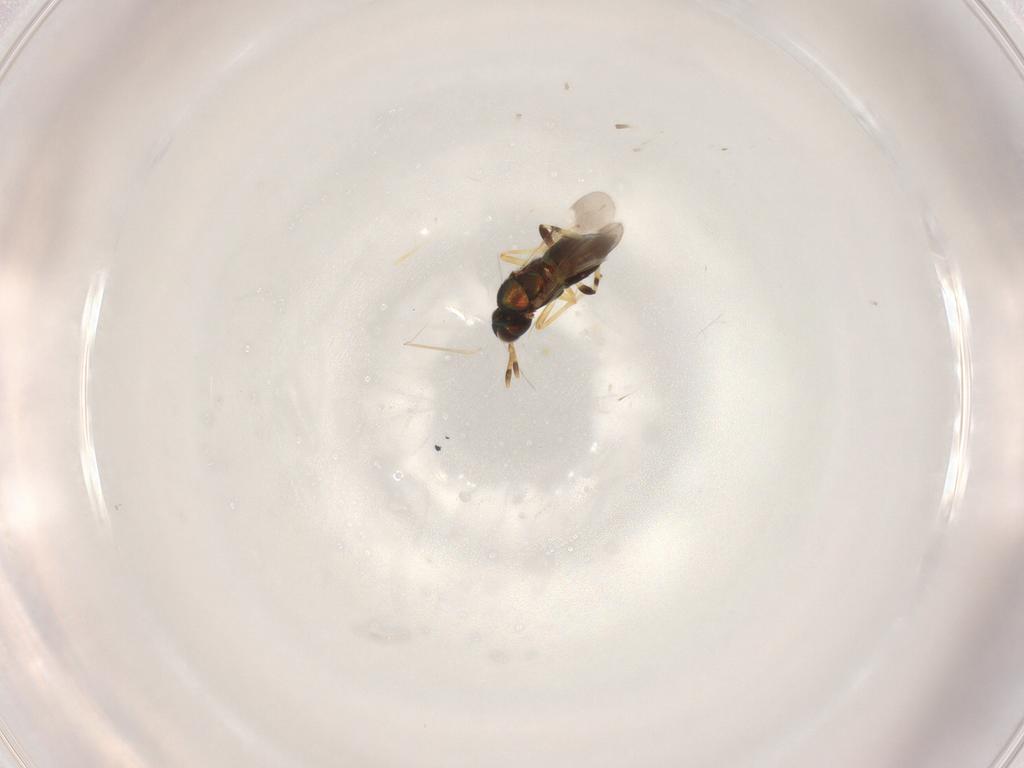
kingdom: Animalia
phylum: Arthropoda
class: Insecta
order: Hymenoptera
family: Encyrtidae
